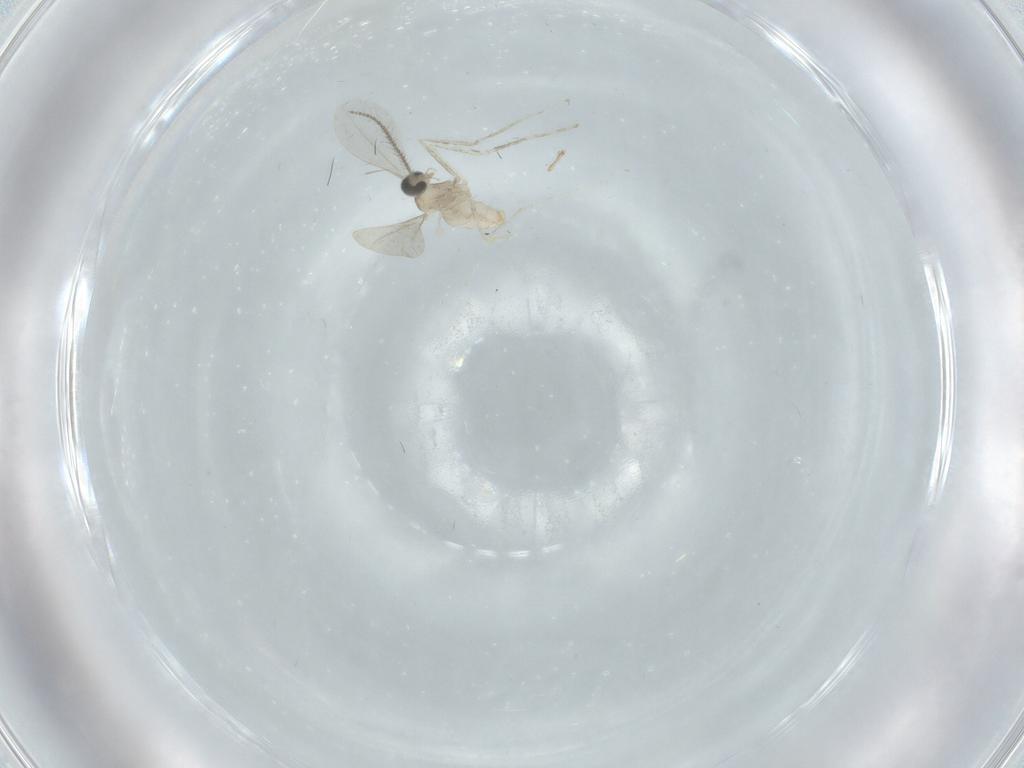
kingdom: Animalia
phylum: Arthropoda
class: Insecta
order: Diptera
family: Cecidomyiidae
